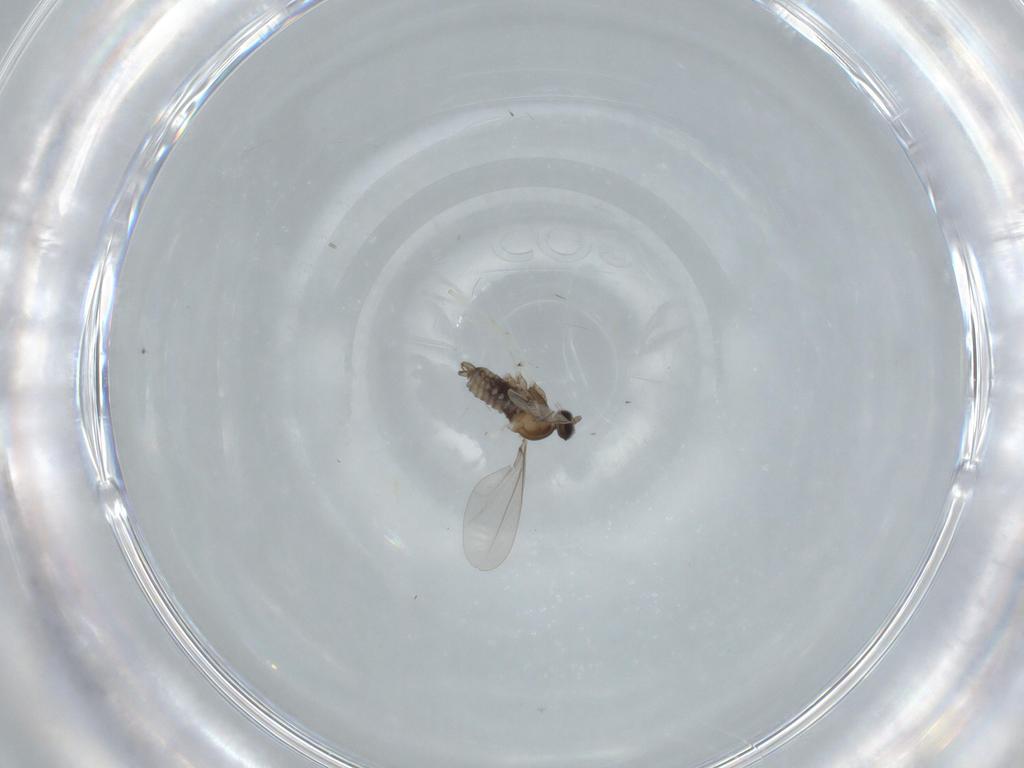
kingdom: Animalia
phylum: Arthropoda
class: Insecta
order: Diptera
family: Cecidomyiidae
